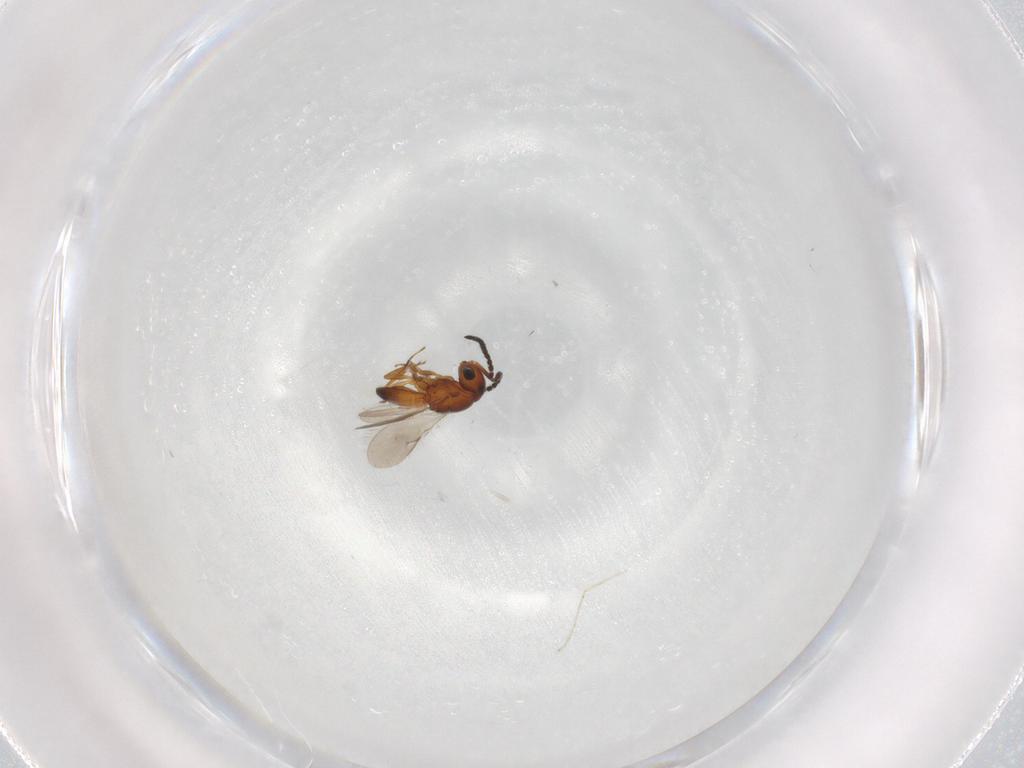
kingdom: Animalia
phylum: Arthropoda
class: Insecta
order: Hymenoptera
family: Scelionidae
